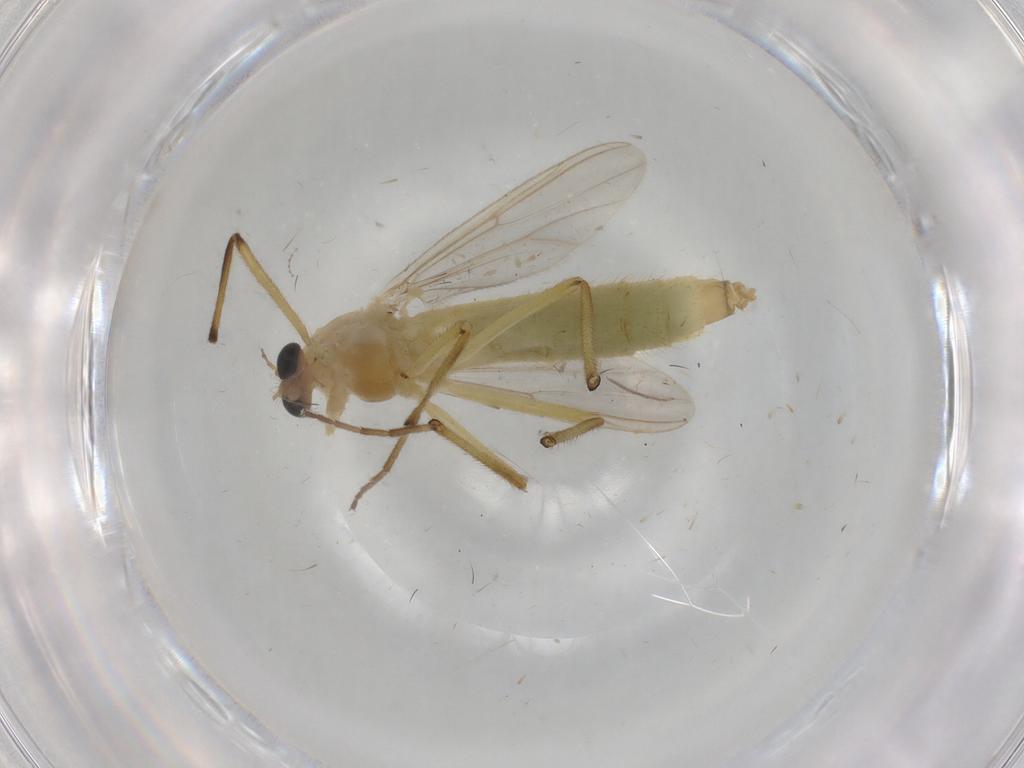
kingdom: Animalia
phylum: Arthropoda
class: Insecta
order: Diptera
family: Chironomidae
